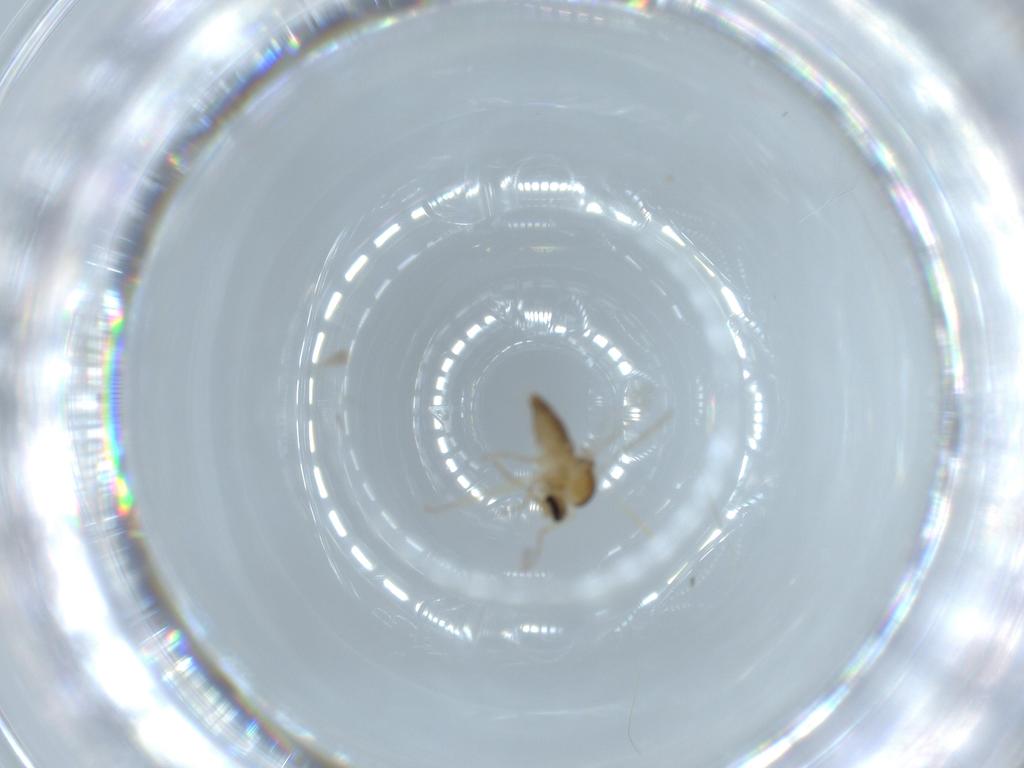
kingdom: Animalia
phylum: Arthropoda
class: Insecta
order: Diptera
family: Ceratopogonidae
